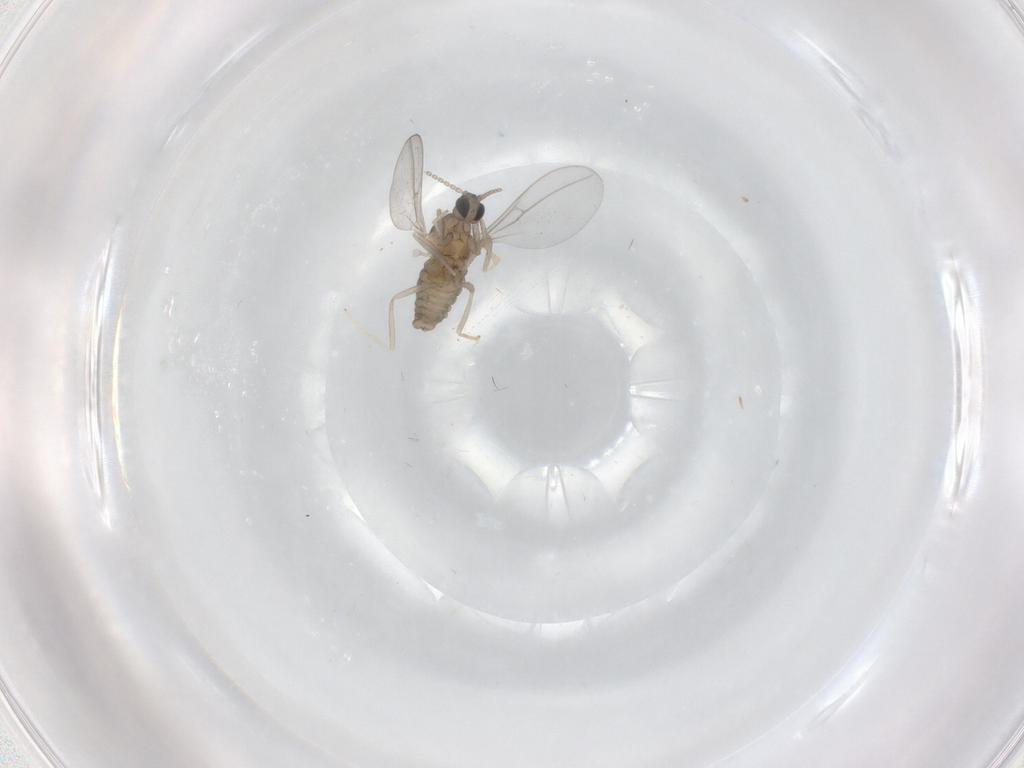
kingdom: Animalia
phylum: Arthropoda
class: Insecta
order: Diptera
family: Cecidomyiidae
